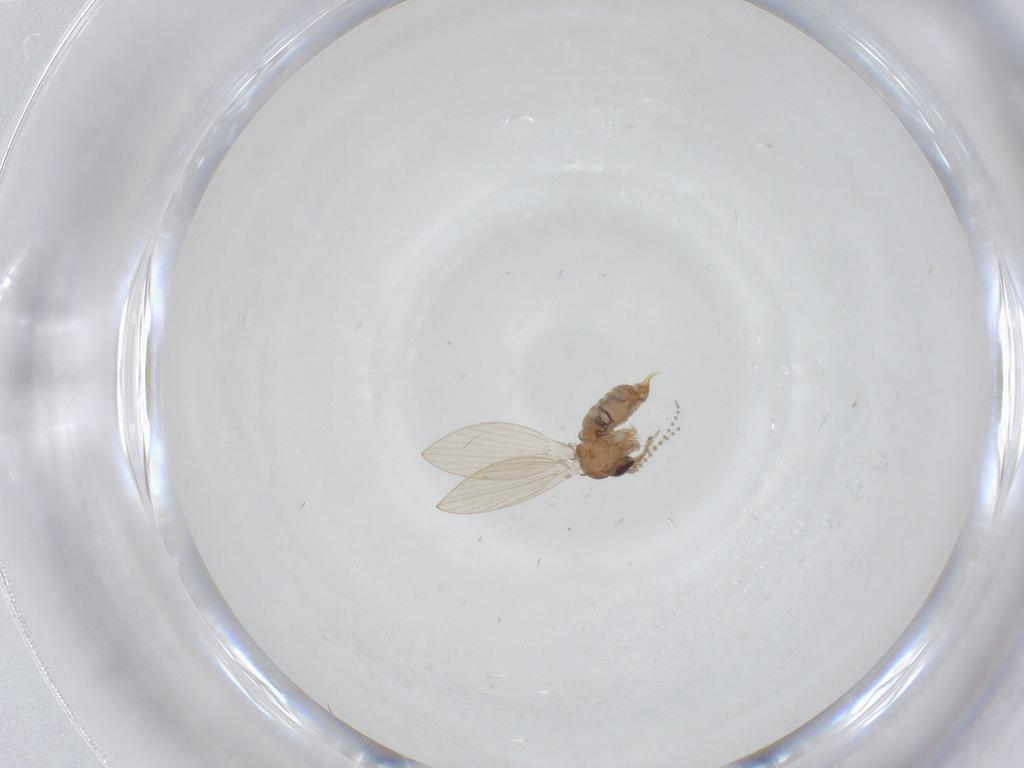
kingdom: Animalia
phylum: Arthropoda
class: Insecta
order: Diptera
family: Psychodidae
